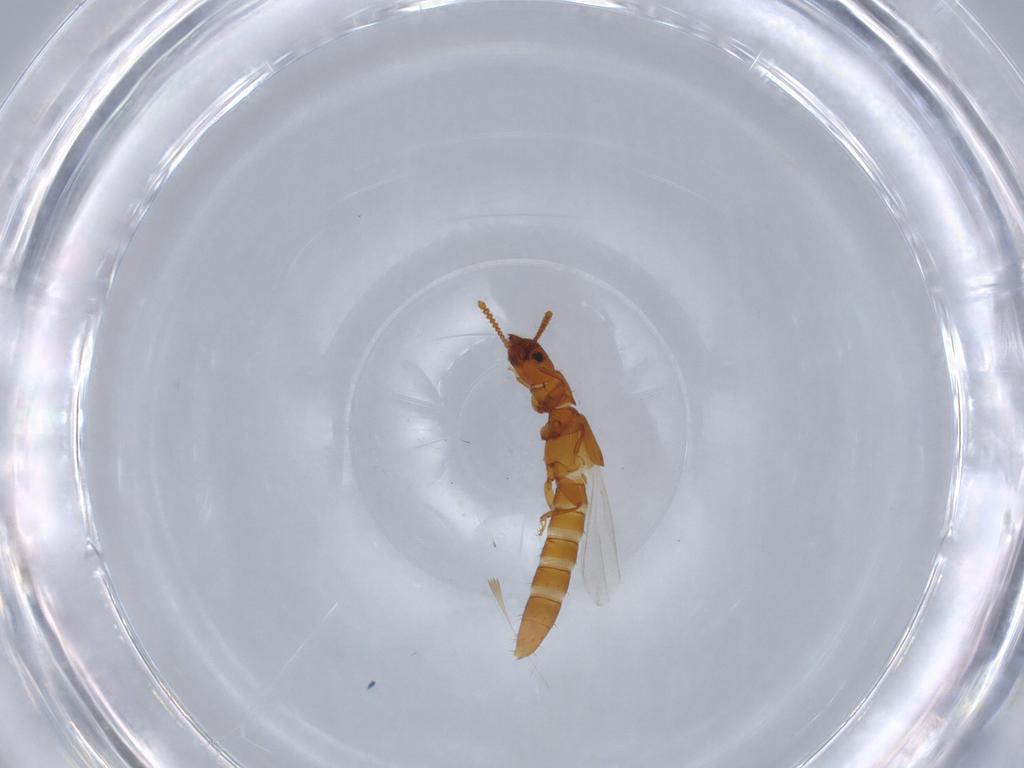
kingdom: Animalia
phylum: Arthropoda
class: Insecta
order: Coleoptera
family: Staphylinidae
